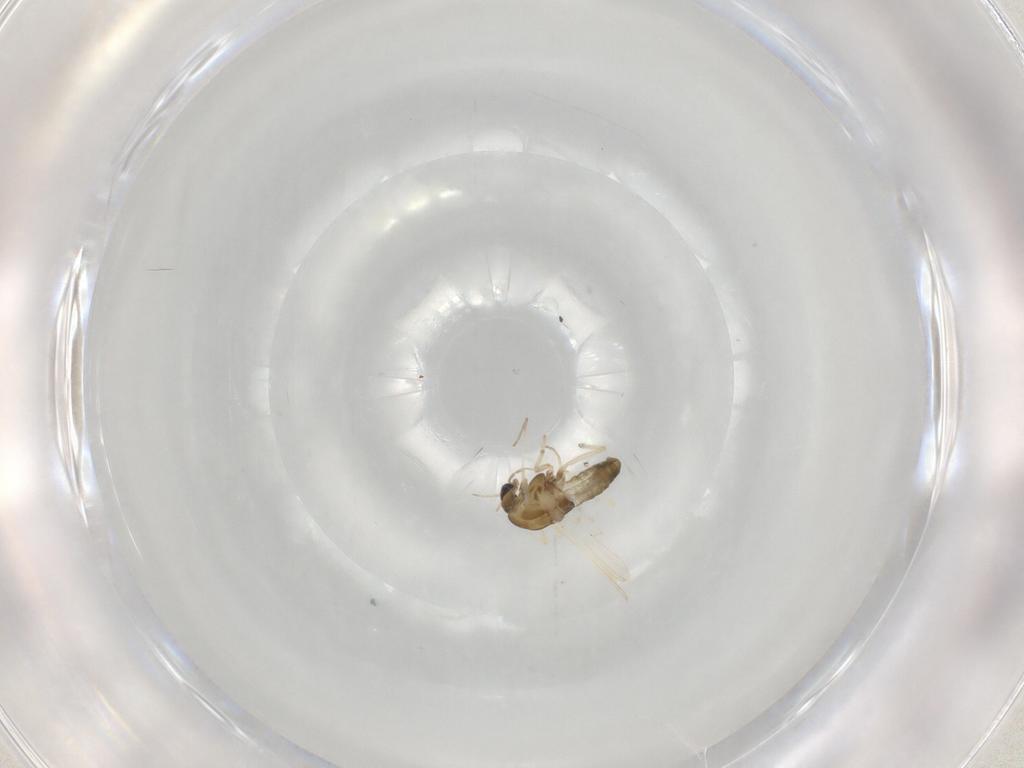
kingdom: Animalia
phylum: Arthropoda
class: Insecta
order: Diptera
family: Chironomidae
